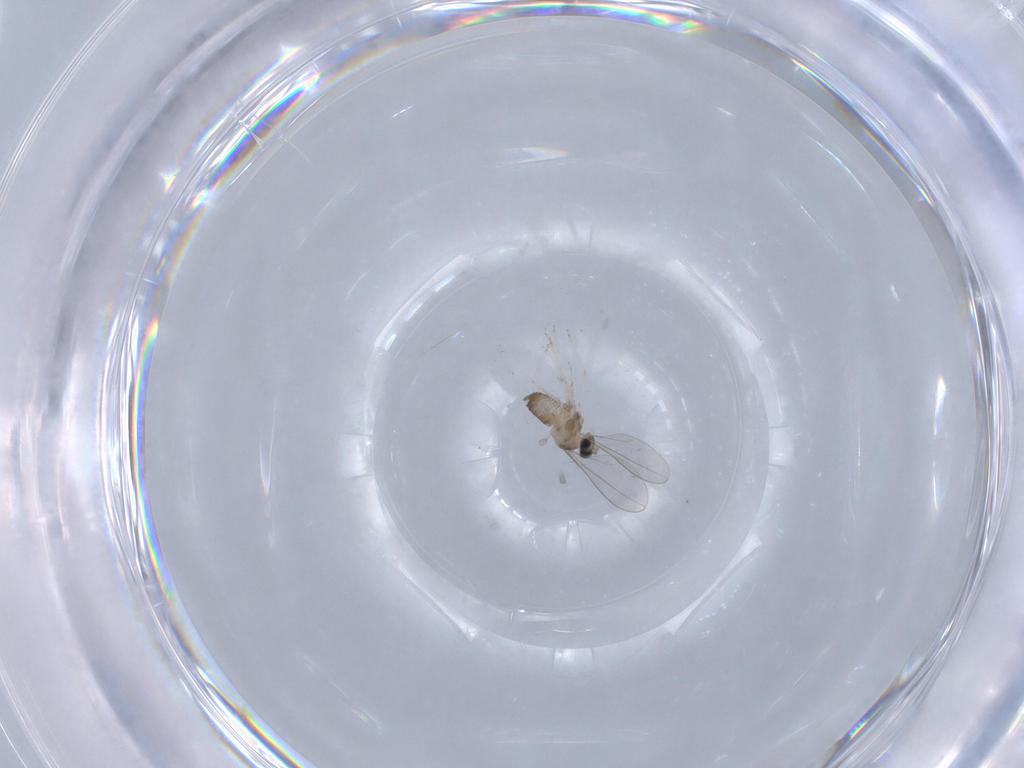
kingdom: Animalia
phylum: Arthropoda
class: Insecta
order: Diptera
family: Cecidomyiidae
